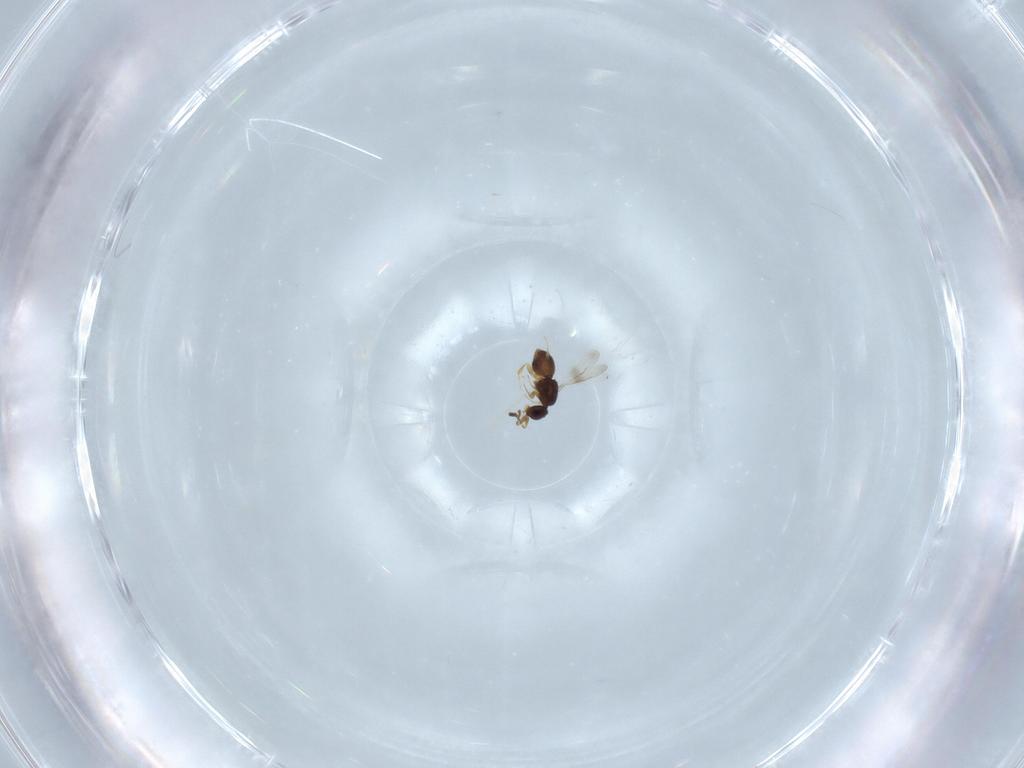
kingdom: Animalia
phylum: Arthropoda
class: Insecta
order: Hymenoptera
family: Ceraphronidae
